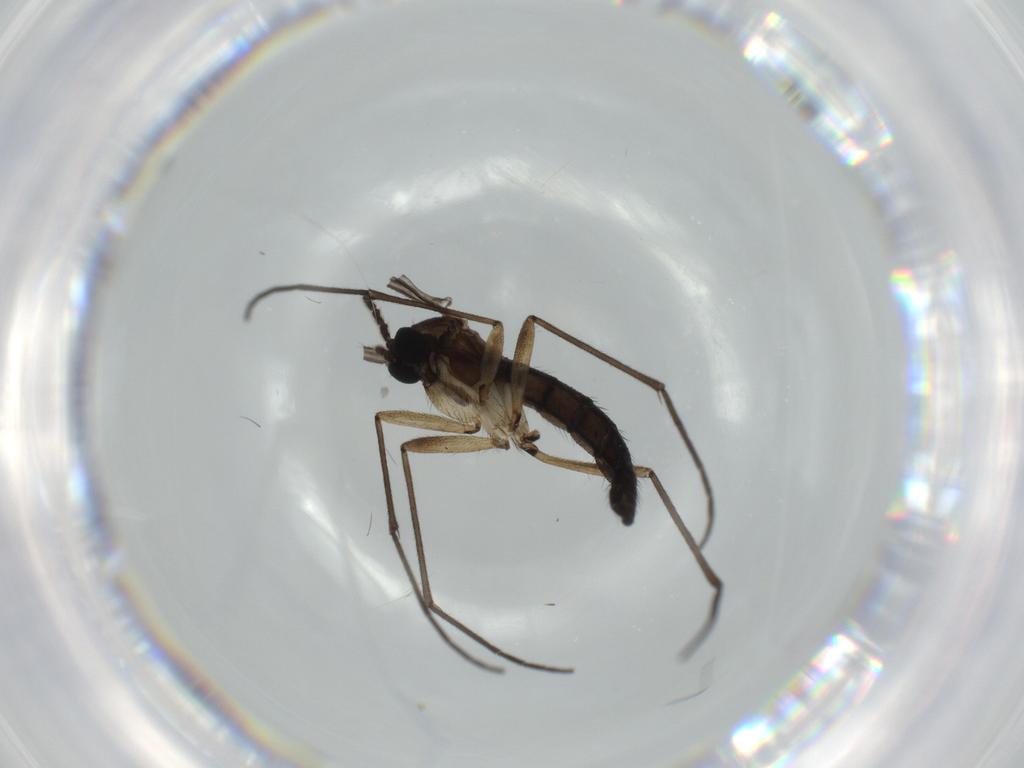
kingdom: Animalia
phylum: Arthropoda
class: Insecta
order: Diptera
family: Sciaridae
